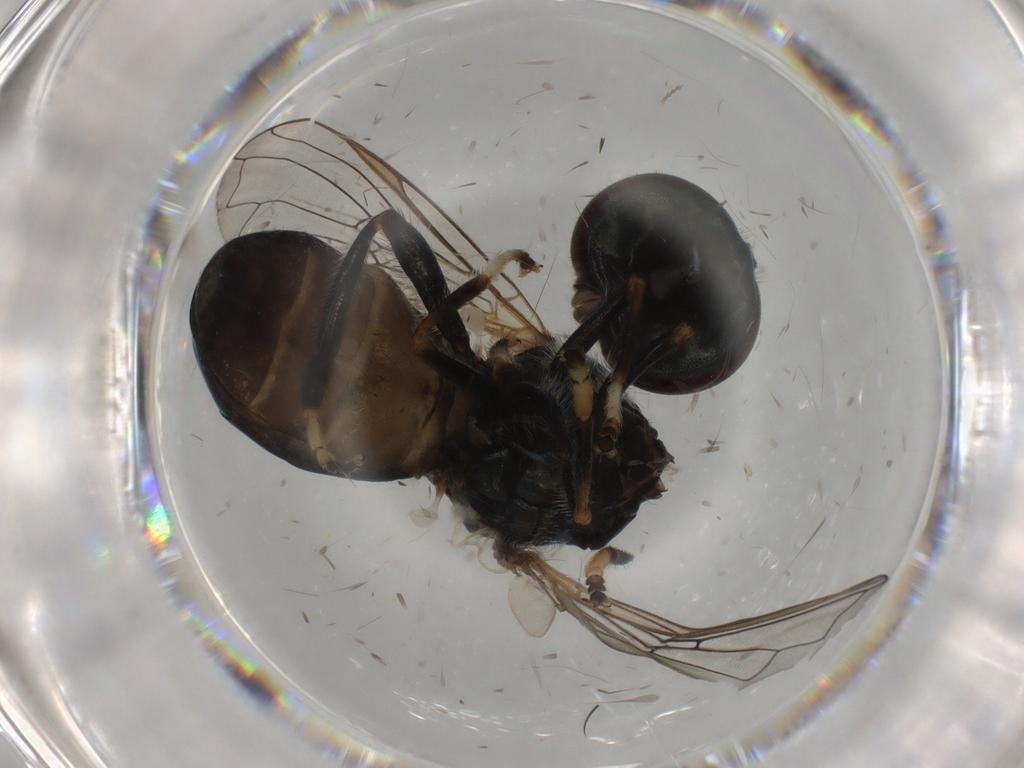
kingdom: Animalia
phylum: Arthropoda
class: Insecta
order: Diptera
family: Syrphidae
